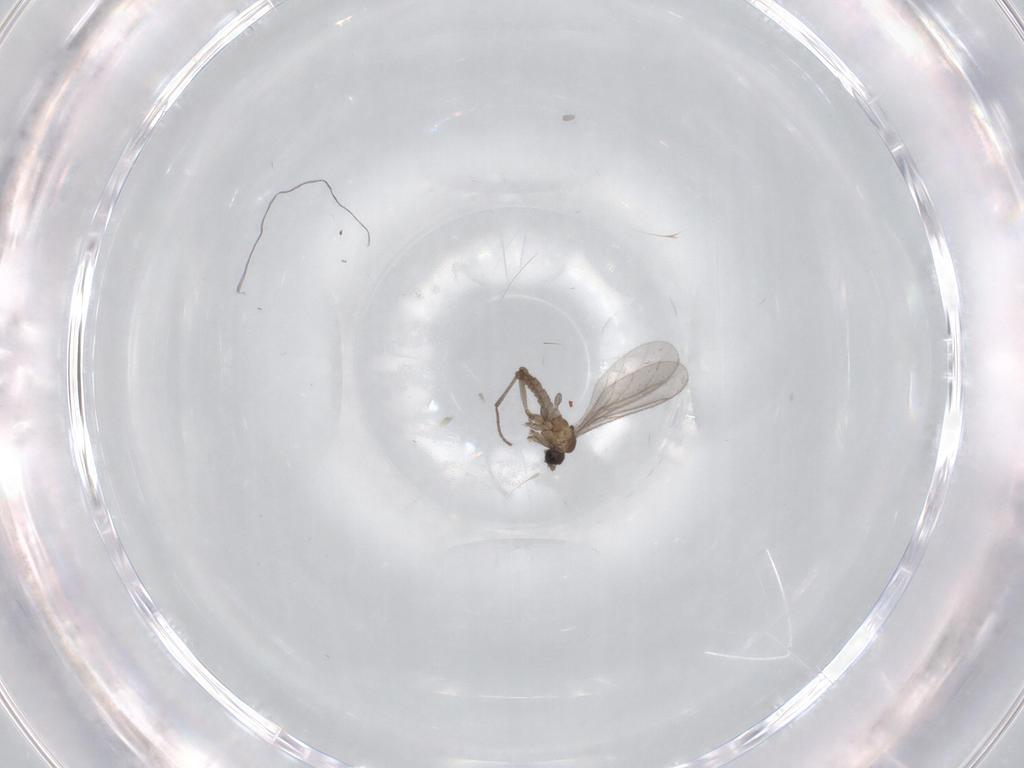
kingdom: Animalia
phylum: Arthropoda
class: Insecta
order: Diptera
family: Sciaridae
